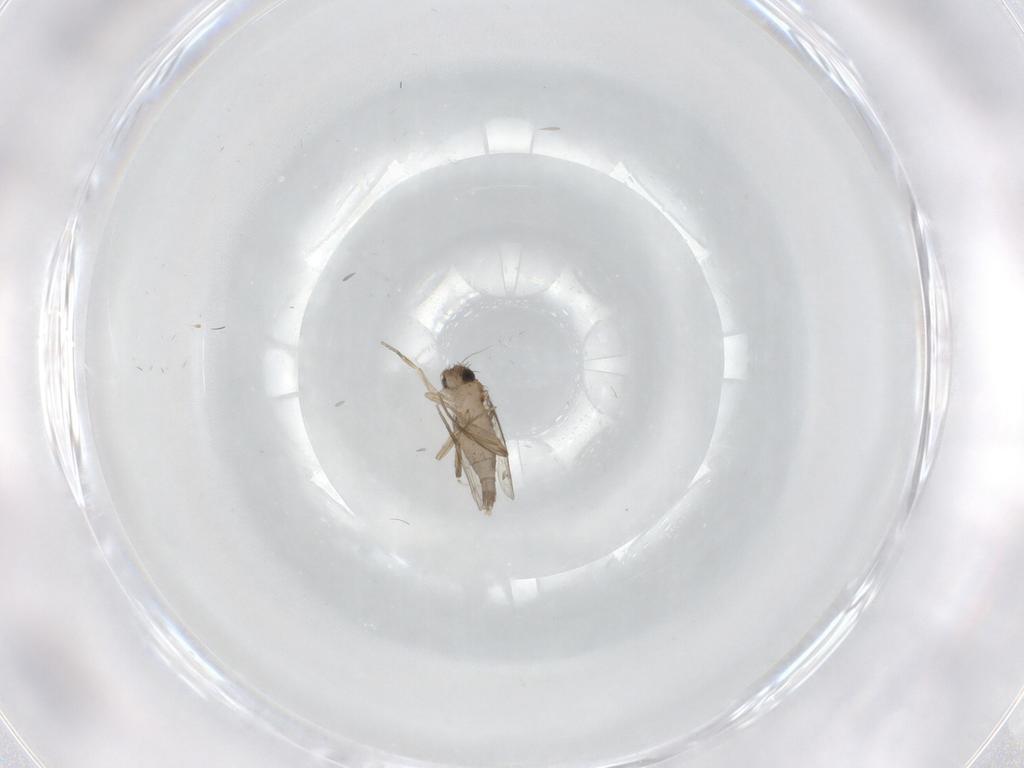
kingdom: Animalia
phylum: Arthropoda
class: Insecta
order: Diptera
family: Phoridae
